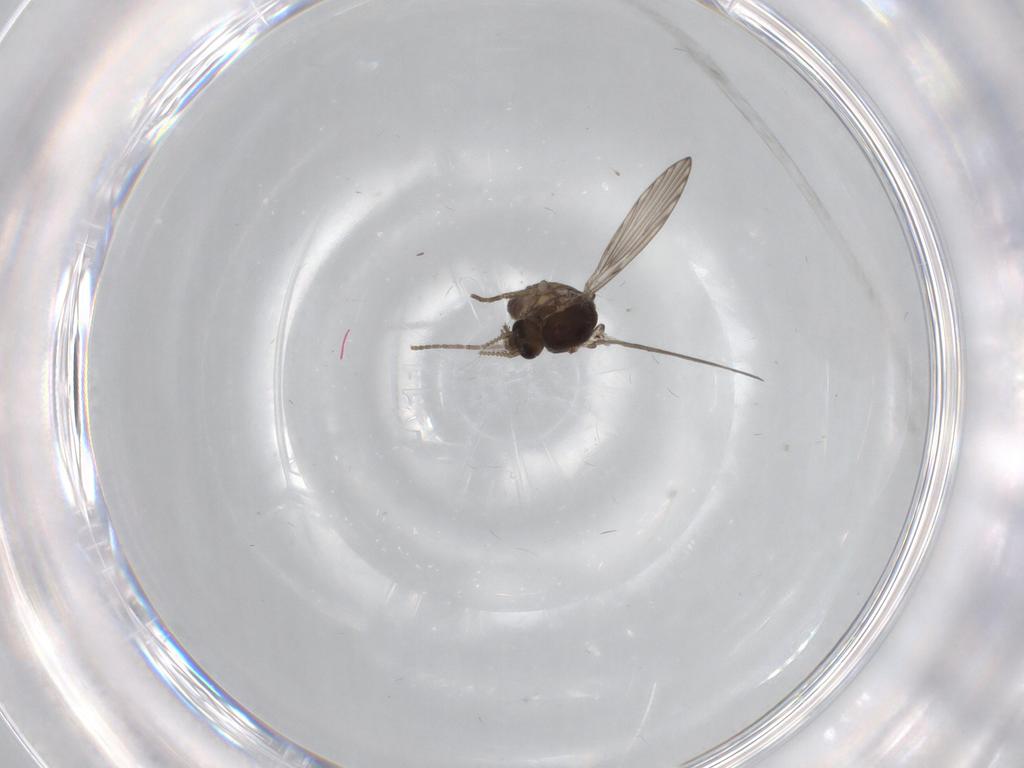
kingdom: Animalia
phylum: Arthropoda
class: Insecta
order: Diptera
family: Psychodidae
